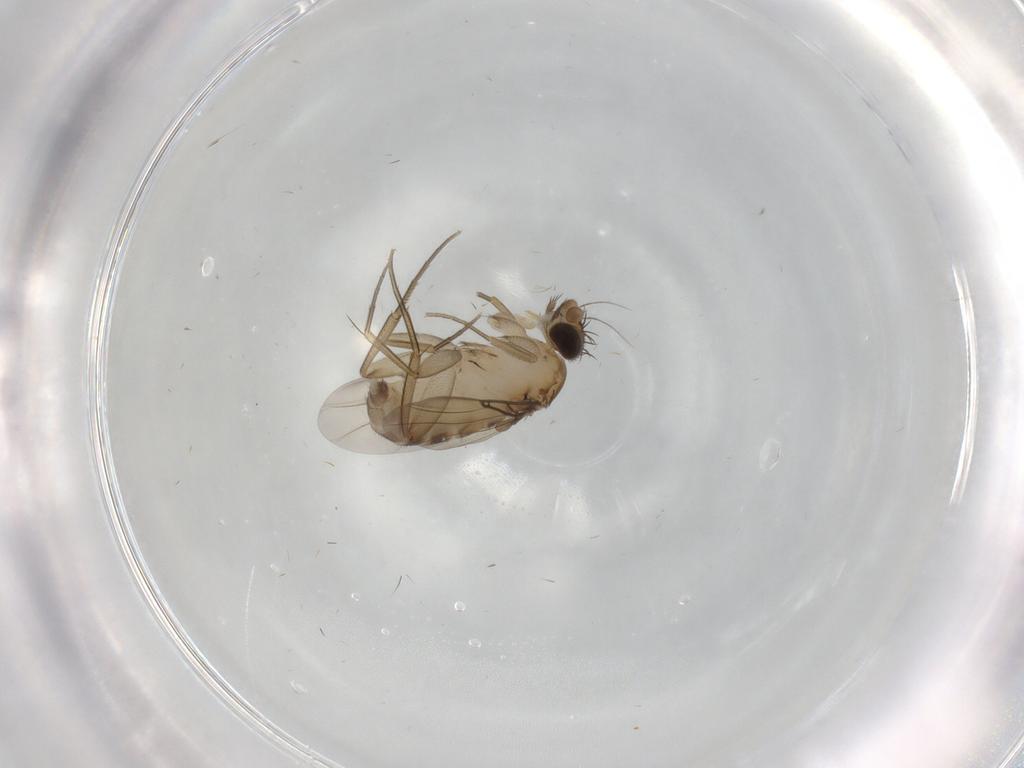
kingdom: Animalia
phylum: Arthropoda
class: Insecta
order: Diptera
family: Phoridae
